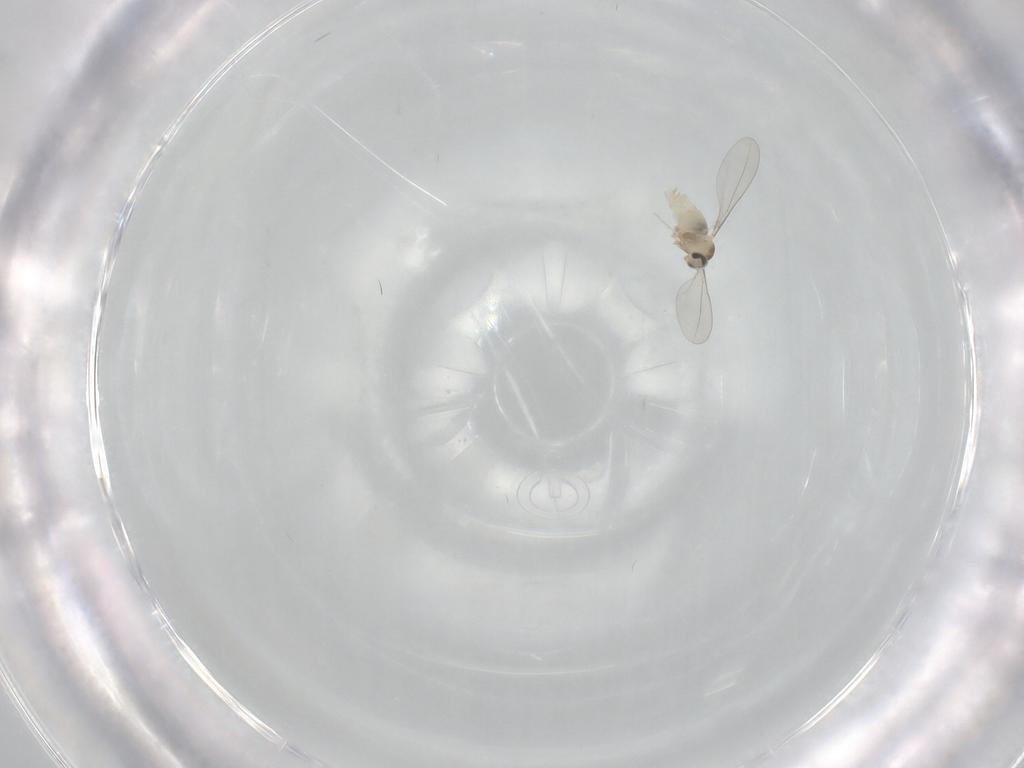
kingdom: Animalia
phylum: Arthropoda
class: Insecta
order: Diptera
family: Cecidomyiidae
